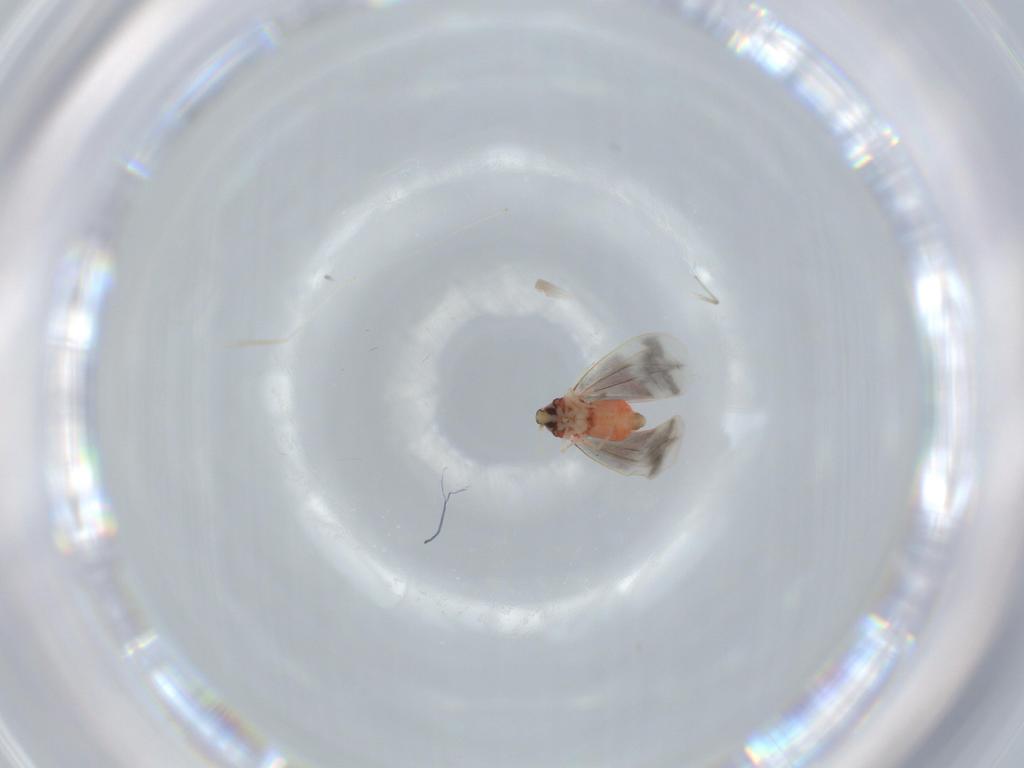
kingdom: Animalia
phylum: Arthropoda
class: Insecta
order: Hemiptera
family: Aleyrodidae
